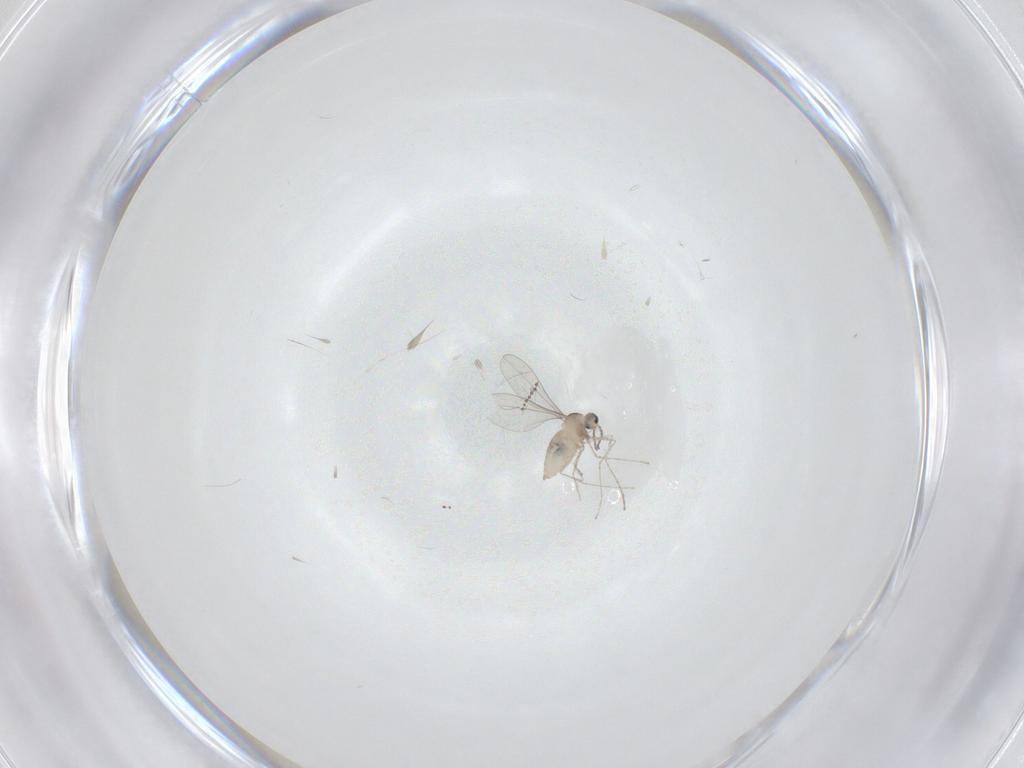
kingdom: Animalia
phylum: Arthropoda
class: Insecta
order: Diptera
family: Cecidomyiidae
